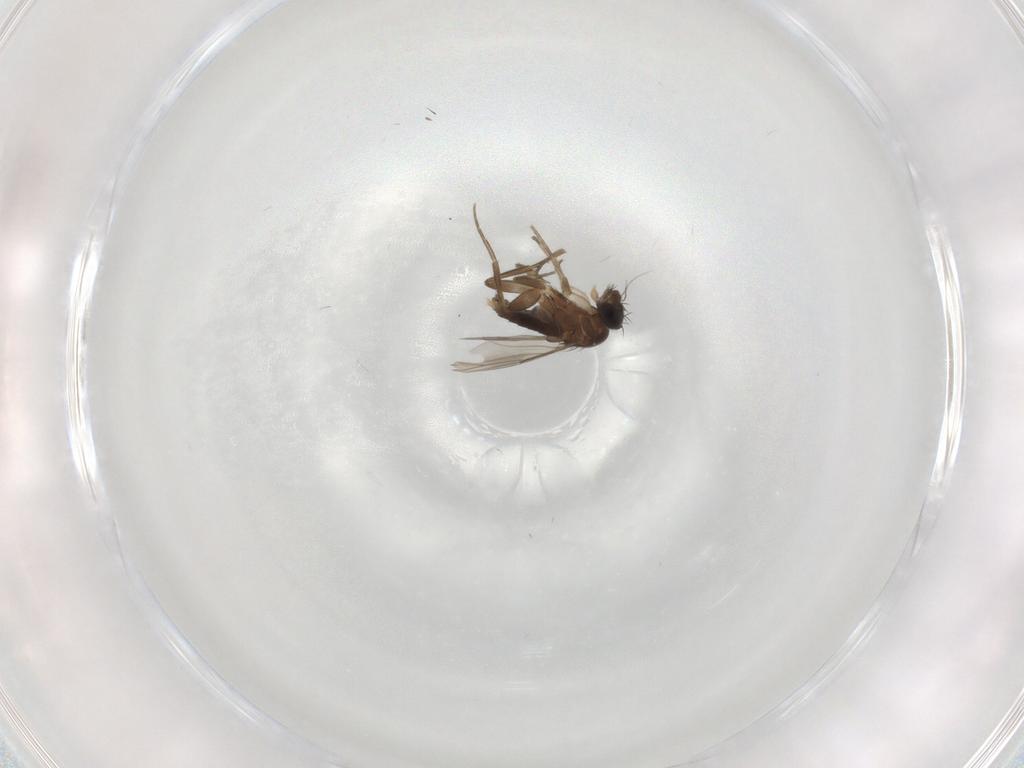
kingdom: Animalia
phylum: Arthropoda
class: Insecta
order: Diptera
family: Phoridae
